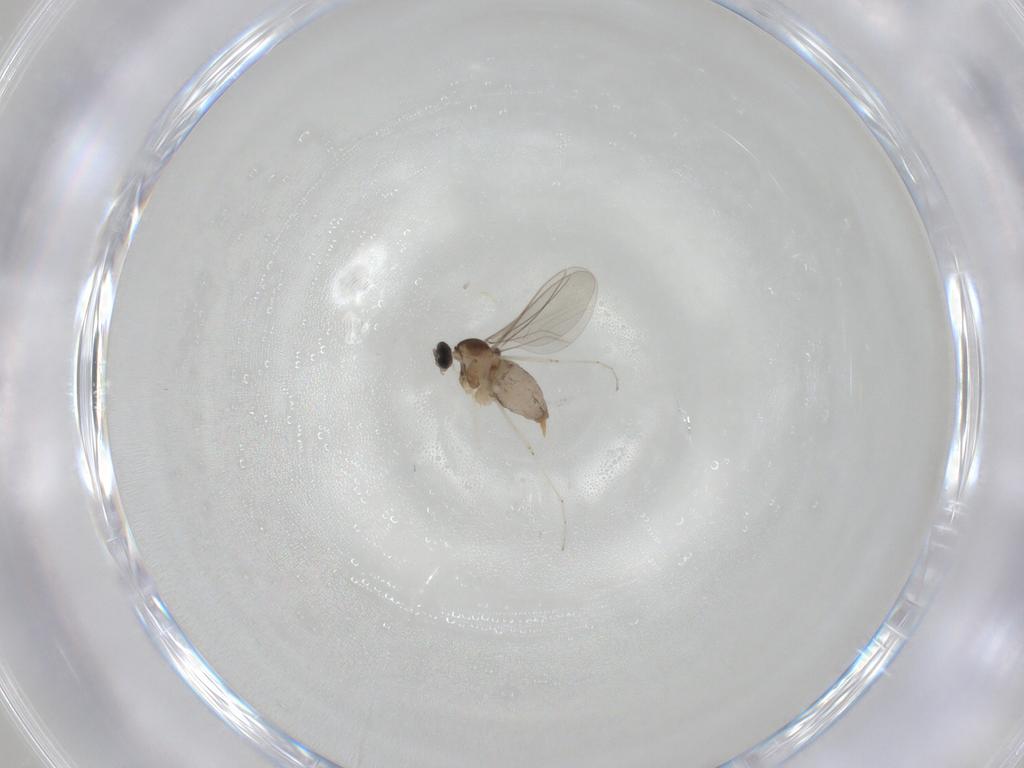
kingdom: Animalia
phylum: Arthropoda
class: Insecta
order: Diptera
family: Cecidomyiidae
